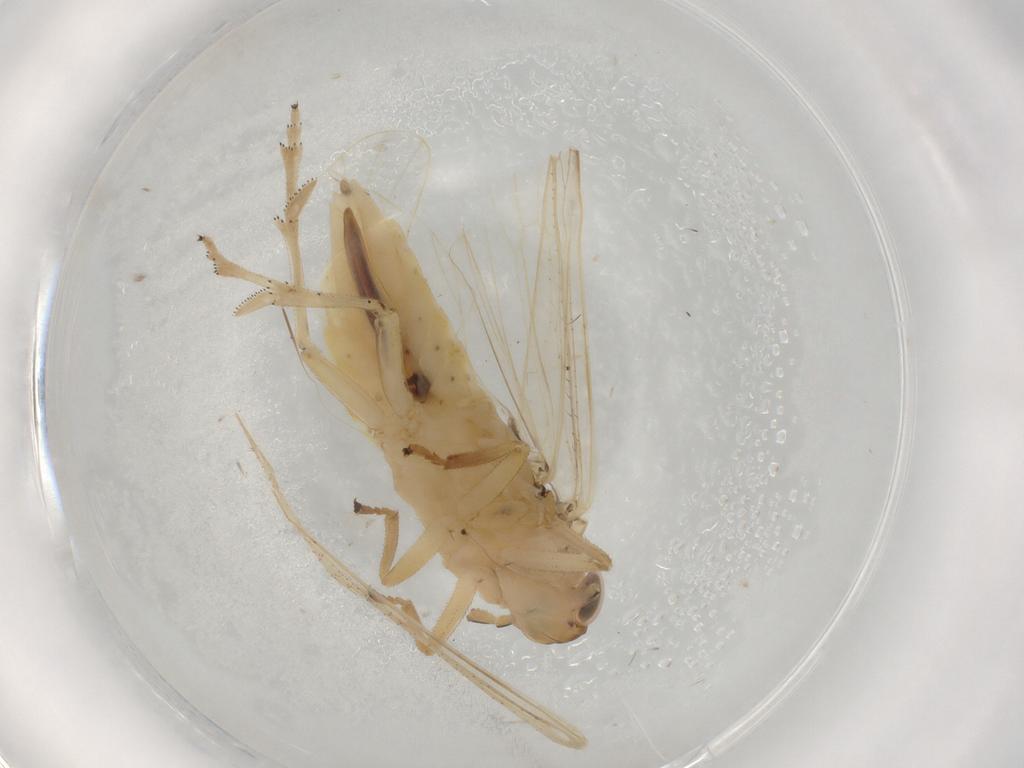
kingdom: Animalia
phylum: Arthropoda
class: Insecta
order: Hemiptera
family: Delphacidae
